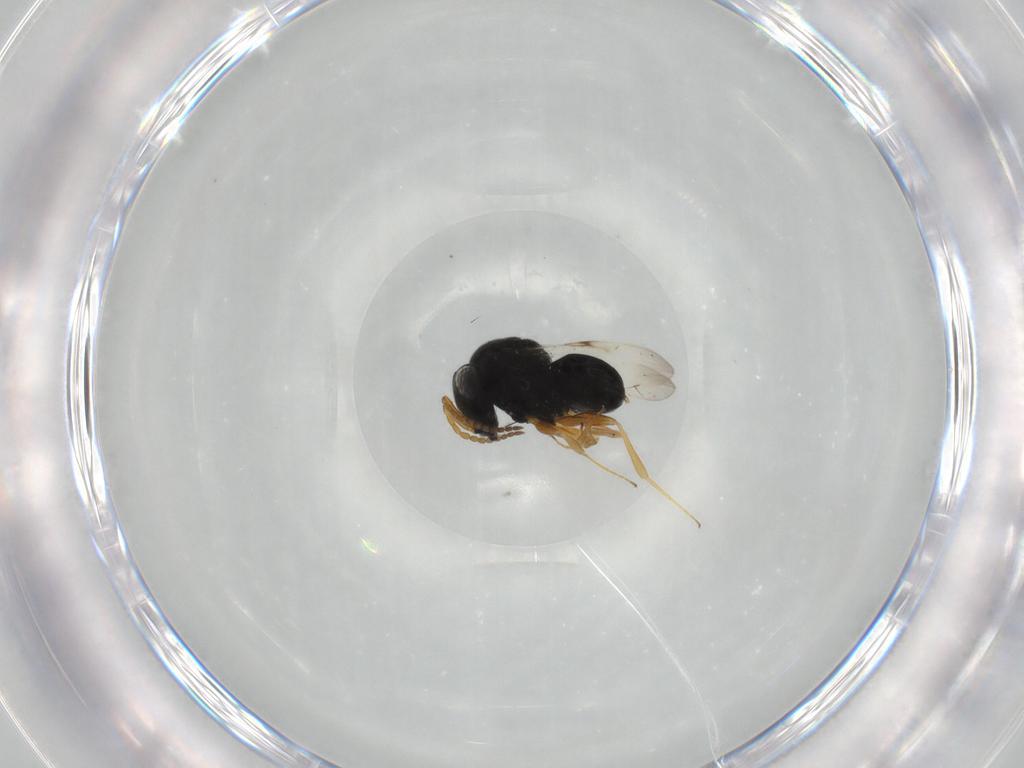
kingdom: Animalia
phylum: Arthropoda
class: Insecta
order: Hymenoptera
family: Scelionidae
